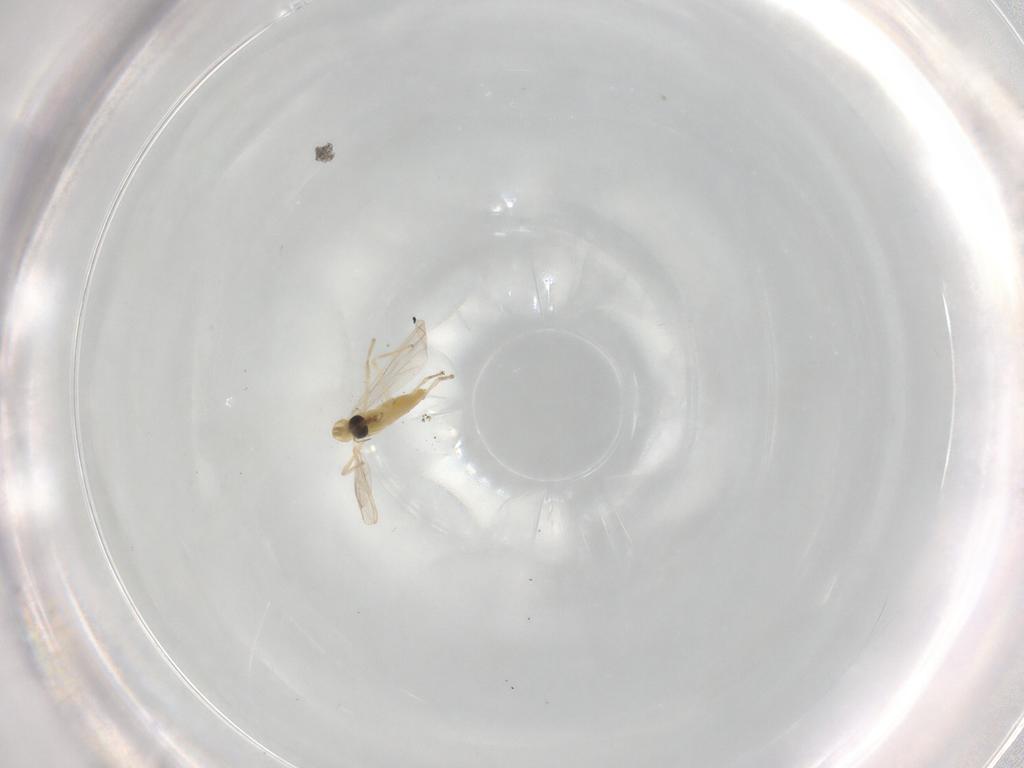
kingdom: Animalia
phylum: Arthropoda
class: Insecta
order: Diptera
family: Chironomidae
